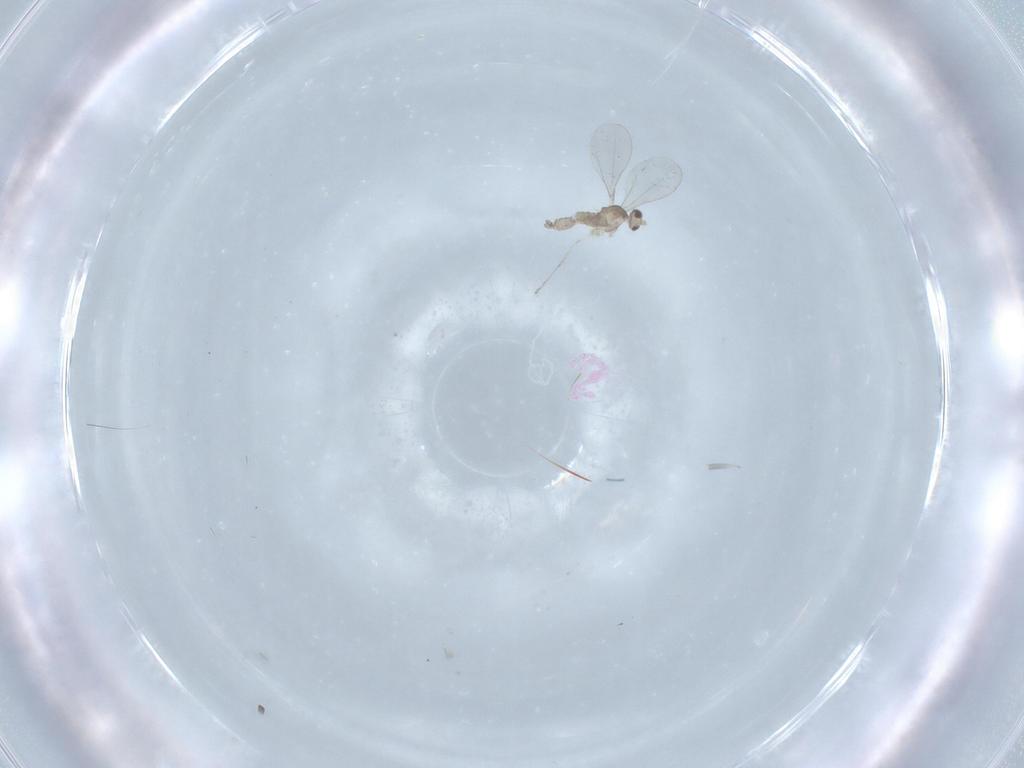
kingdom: Animalia
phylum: Arthropoda
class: Insecta
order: Diptera
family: Cecidomyiidae
